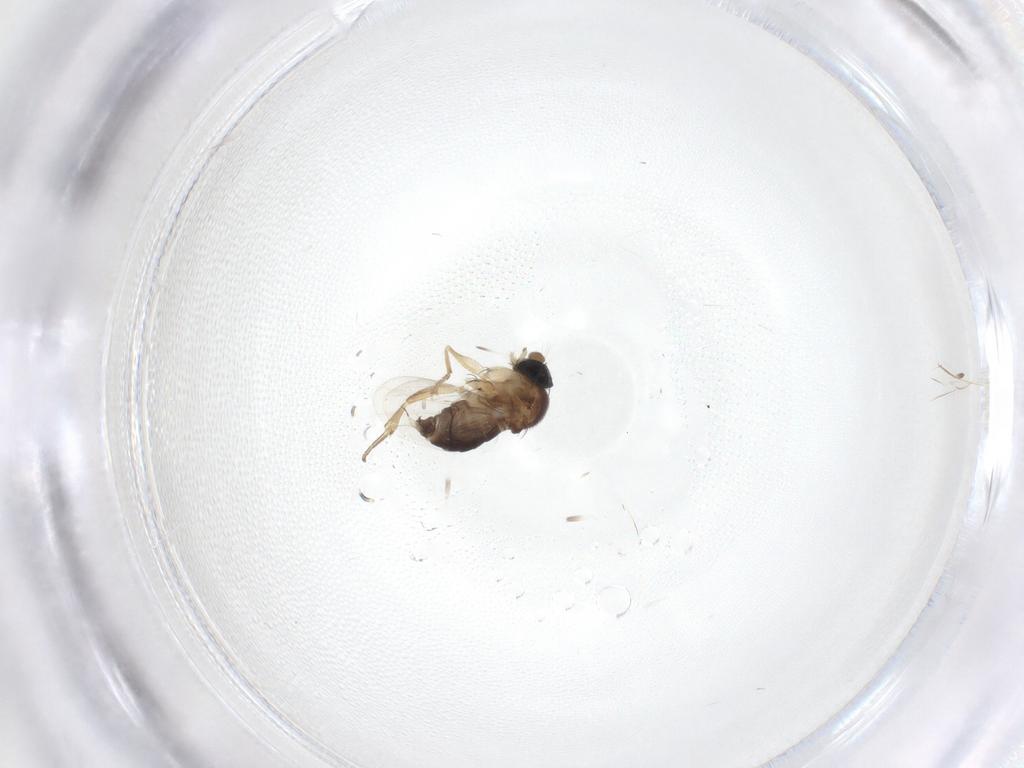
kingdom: Animalia
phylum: Arthropoda
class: Insecta
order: Diptera
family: Phoridae
